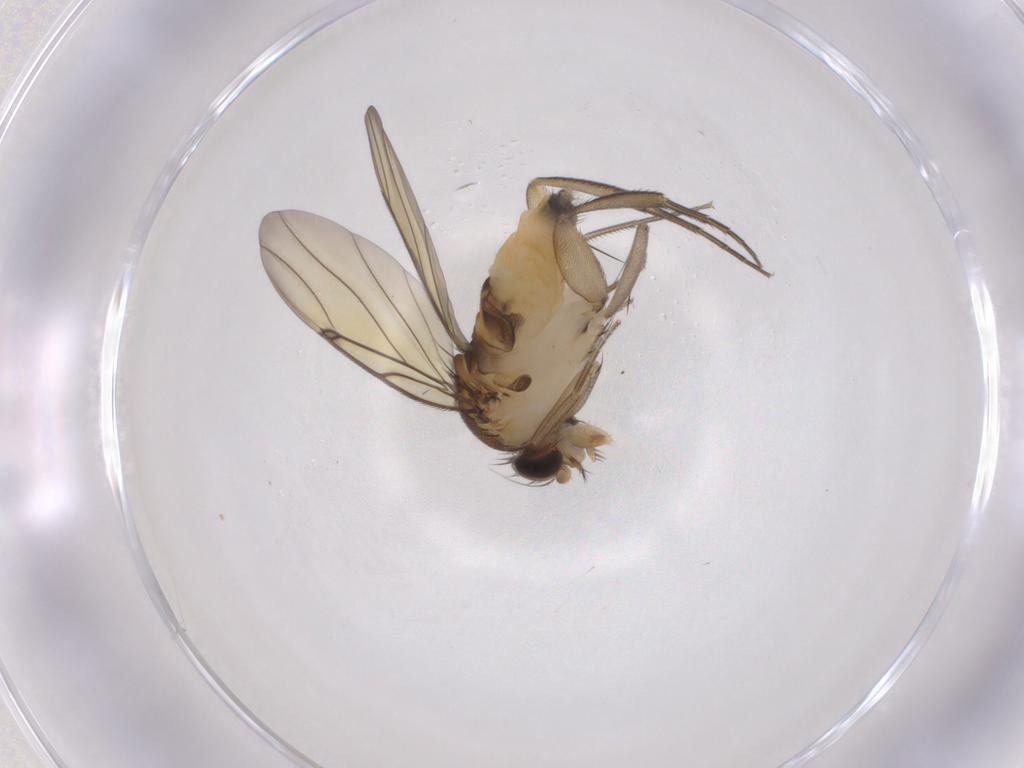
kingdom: Animalia
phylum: Arthropoda
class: Insecta
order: Diptera
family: Phoridae
